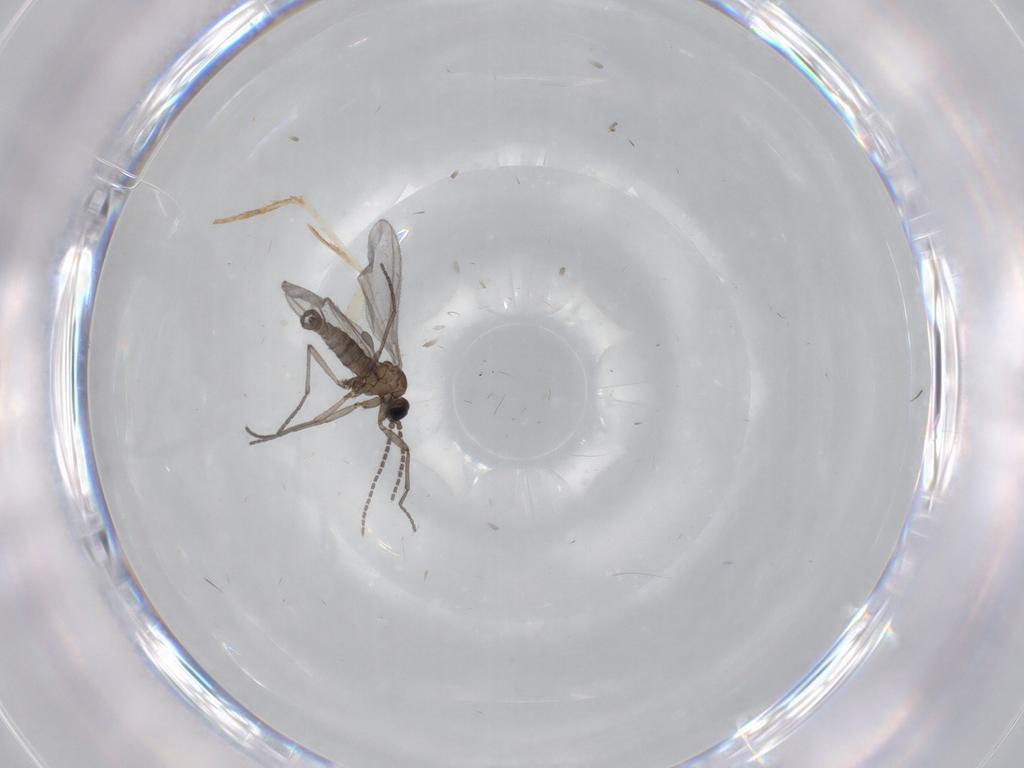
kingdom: Animalia
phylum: Arthropoda
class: Insecta
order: Diptera
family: Sciaridae
